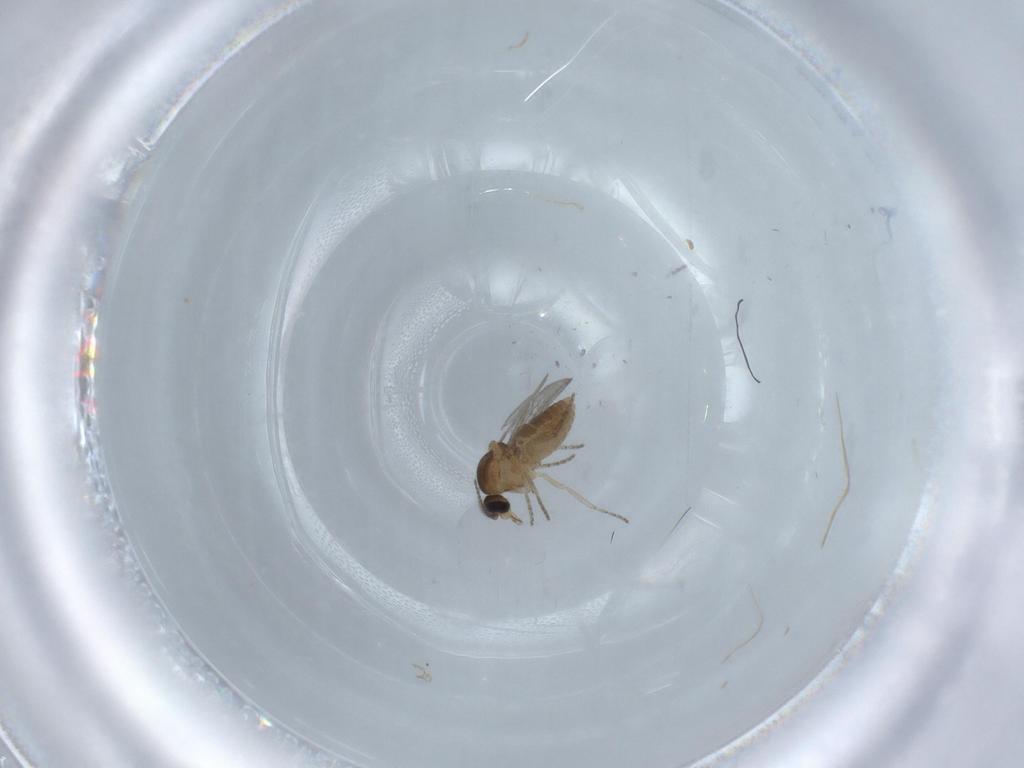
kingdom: Animalia
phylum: Arthropoda
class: Insecta
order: Diptera
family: Cecidomyiidae
